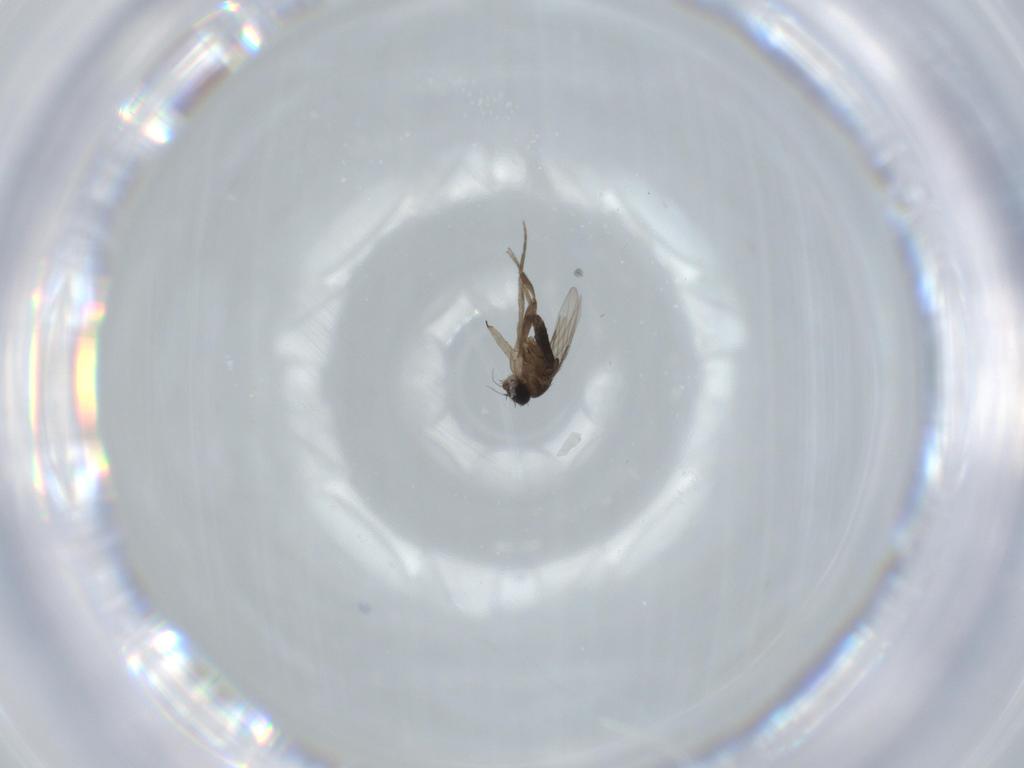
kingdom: Animalia
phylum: Arthropoda
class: Insecta
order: Diptera
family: Phoridae
